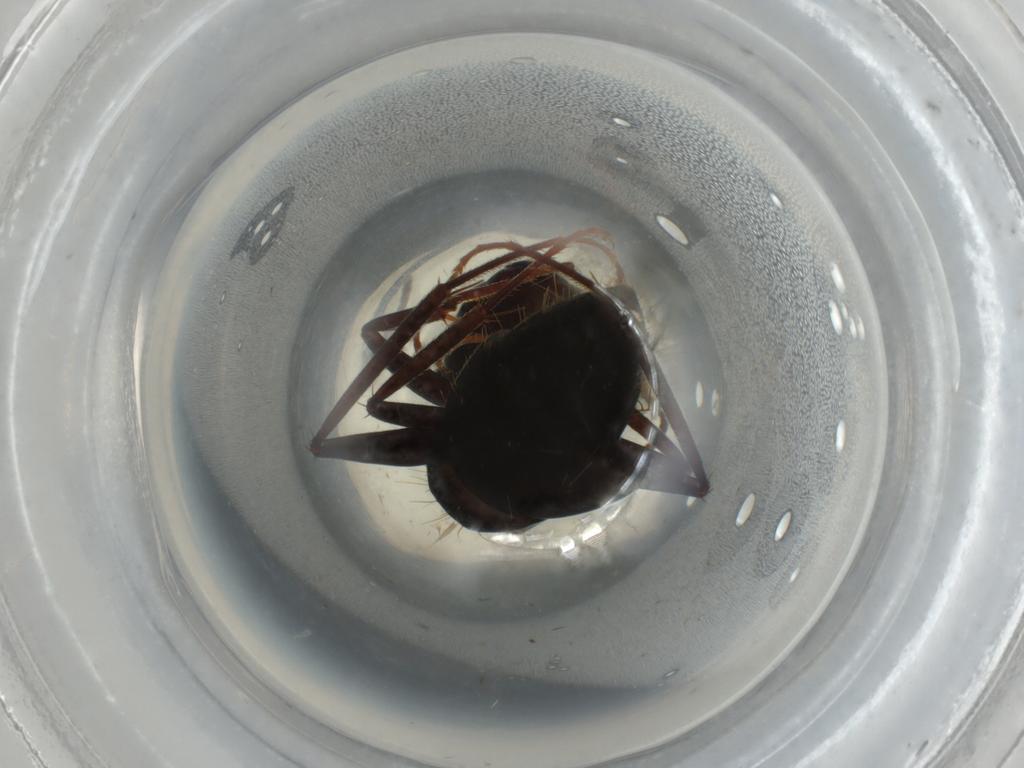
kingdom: Animalia
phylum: Arthropoda
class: Insecta
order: Hymenoptera
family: Formicidae
